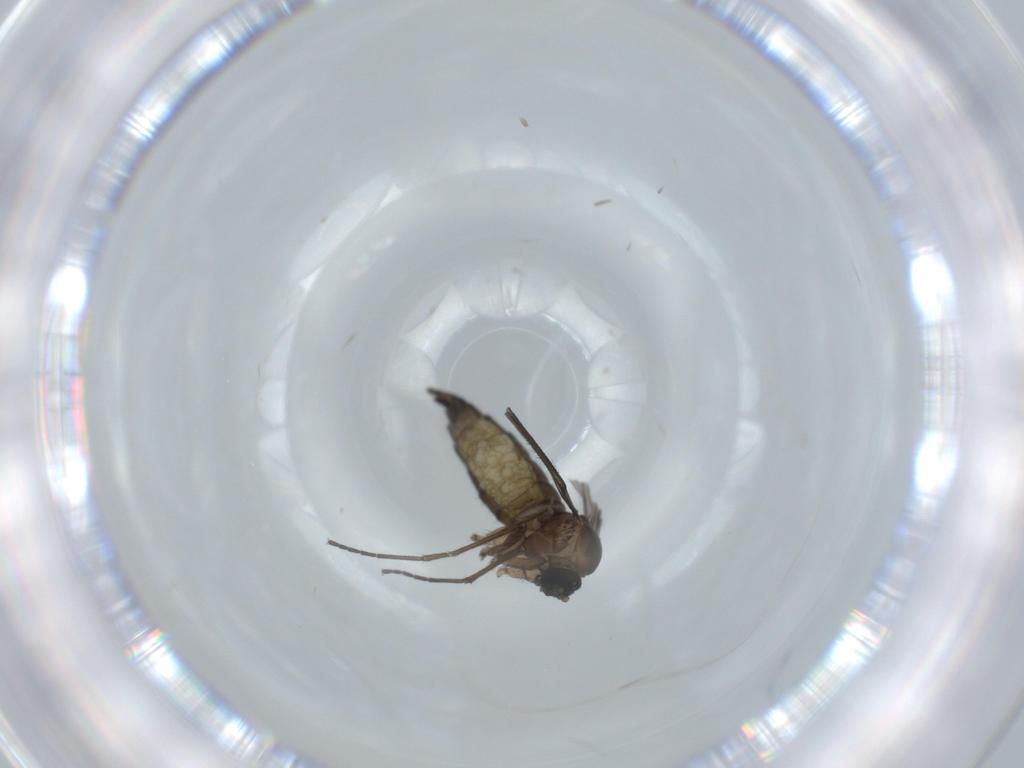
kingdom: Animalia
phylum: Arthropoda
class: Insecta
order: Diptera
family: Sciaridae
